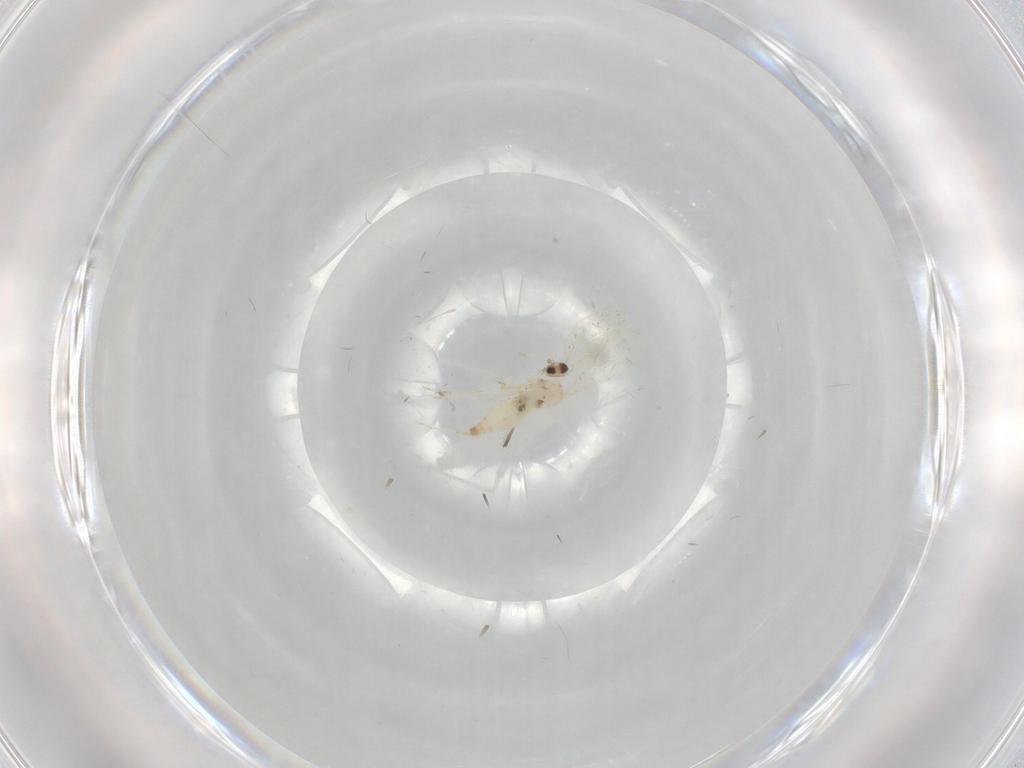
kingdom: Animalia
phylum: Arthropoda
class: Insecta
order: Diptera
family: Cecidomyiidae
